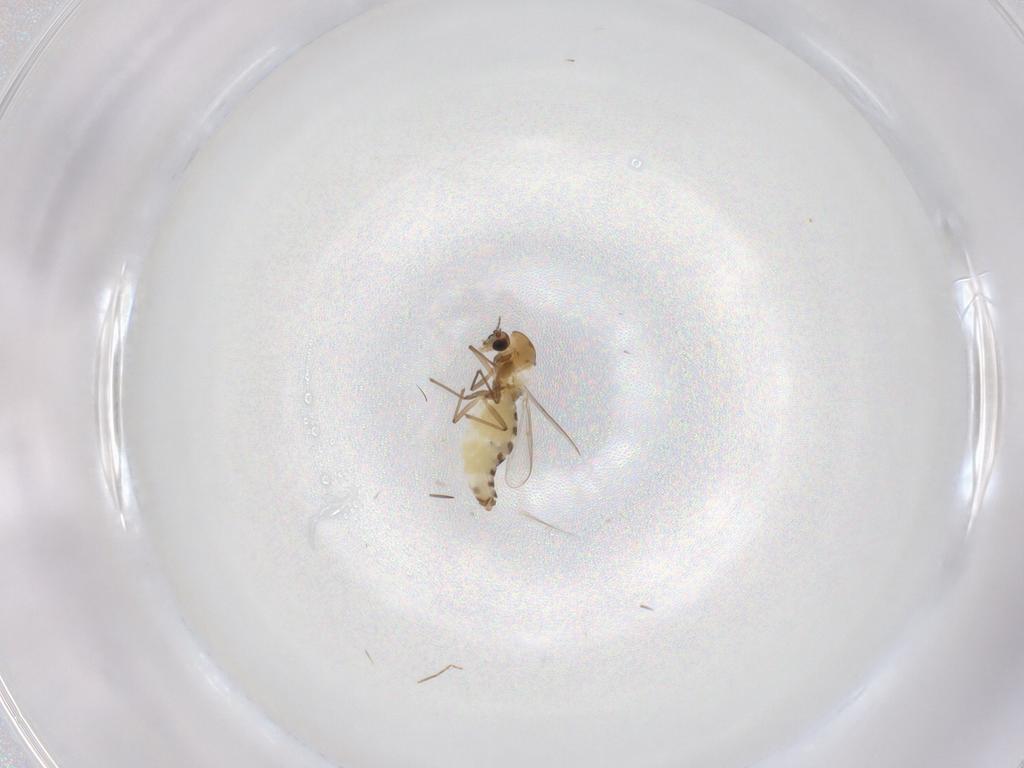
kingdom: Animalia
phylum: Arthropoda
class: Insecta
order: Diptera
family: Chironomidae
